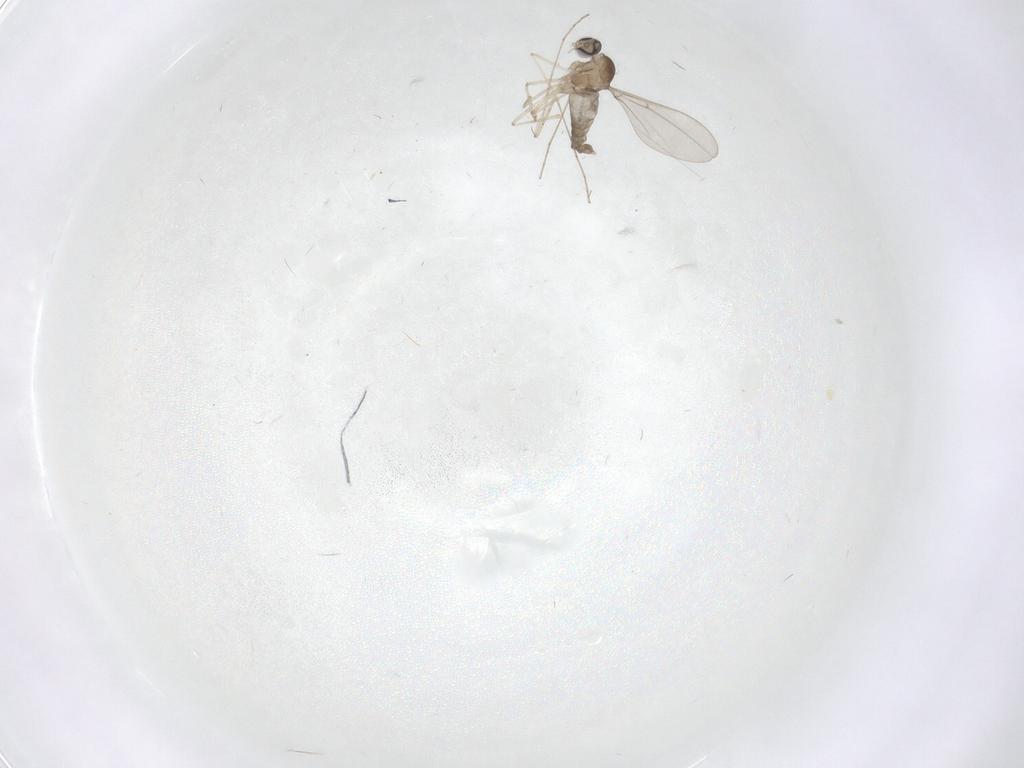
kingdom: Animalia
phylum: Arthropoda
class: Insecta
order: Diptera
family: Cecidomyiidae
